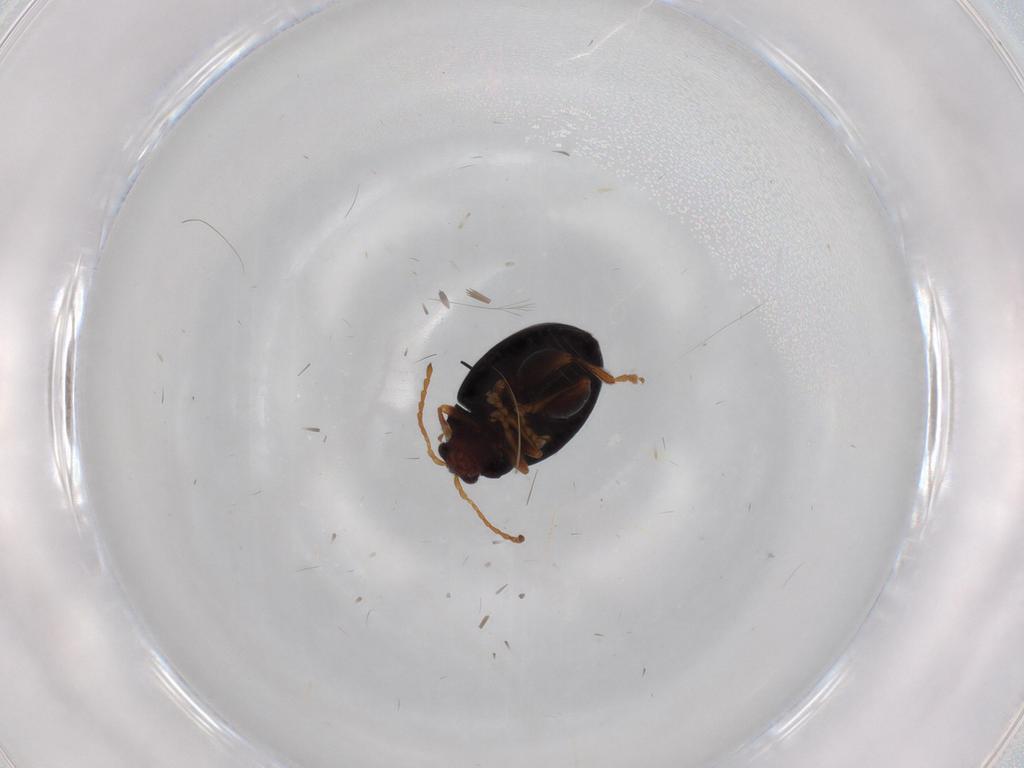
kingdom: Animalia
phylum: Arthropoda
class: Insecta
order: Coleoptera
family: Chrysomelidae
